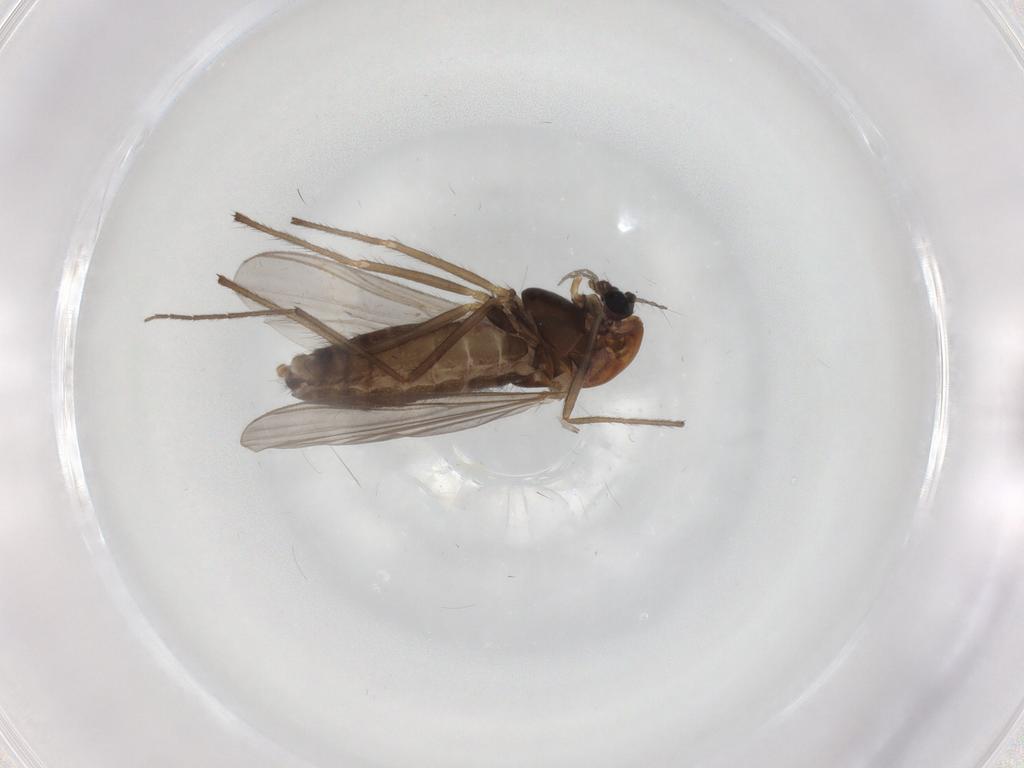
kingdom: Animalia
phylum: Arthropoda
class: Insecta
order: Diptera
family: Chironomidae
